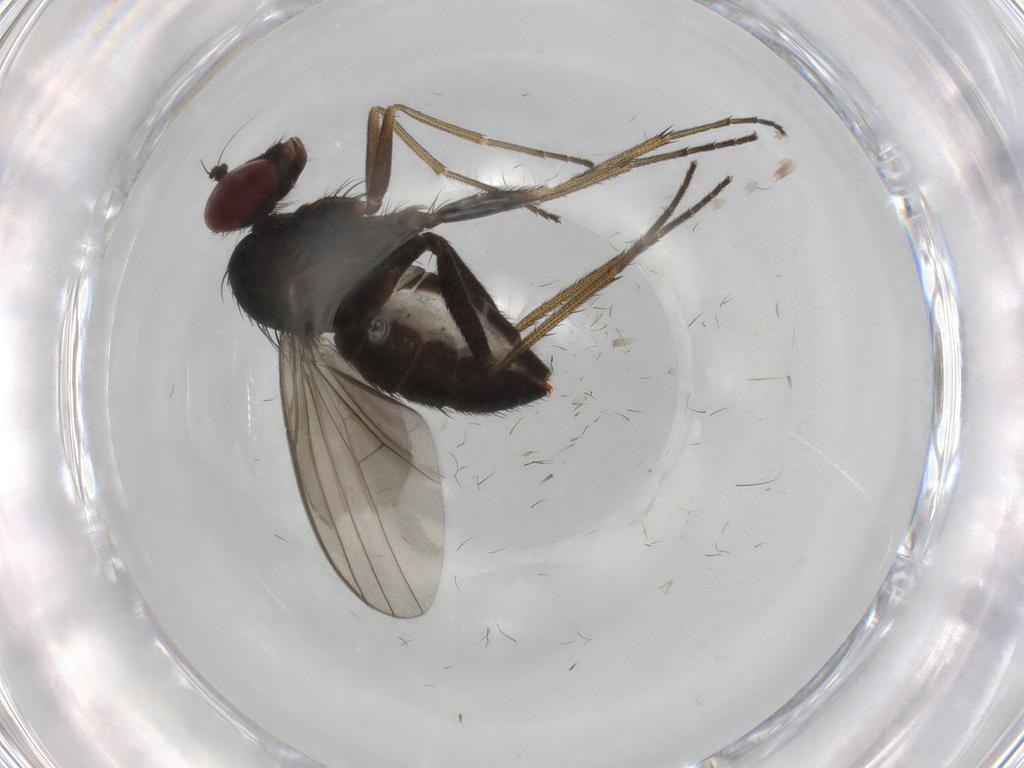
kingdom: Animalia
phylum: Arthropoda
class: Insecta
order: Diptera
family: Dolichopodidae
